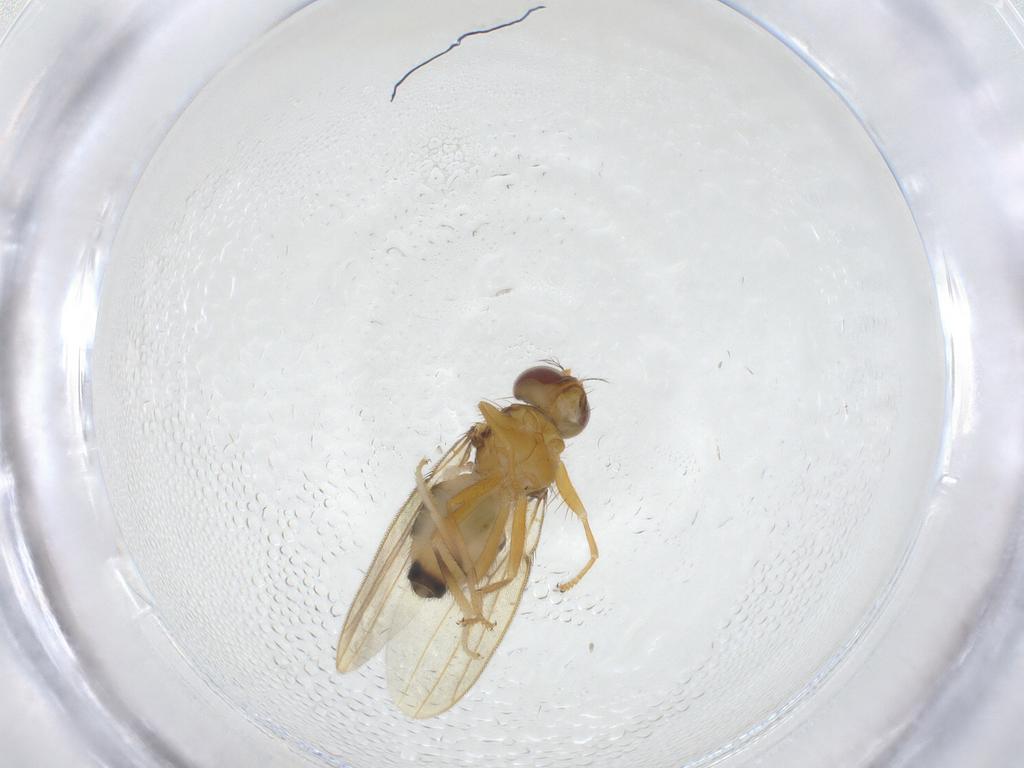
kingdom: Animalia
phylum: Arthropoda
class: Insecta
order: Diptera
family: Periscelididae
